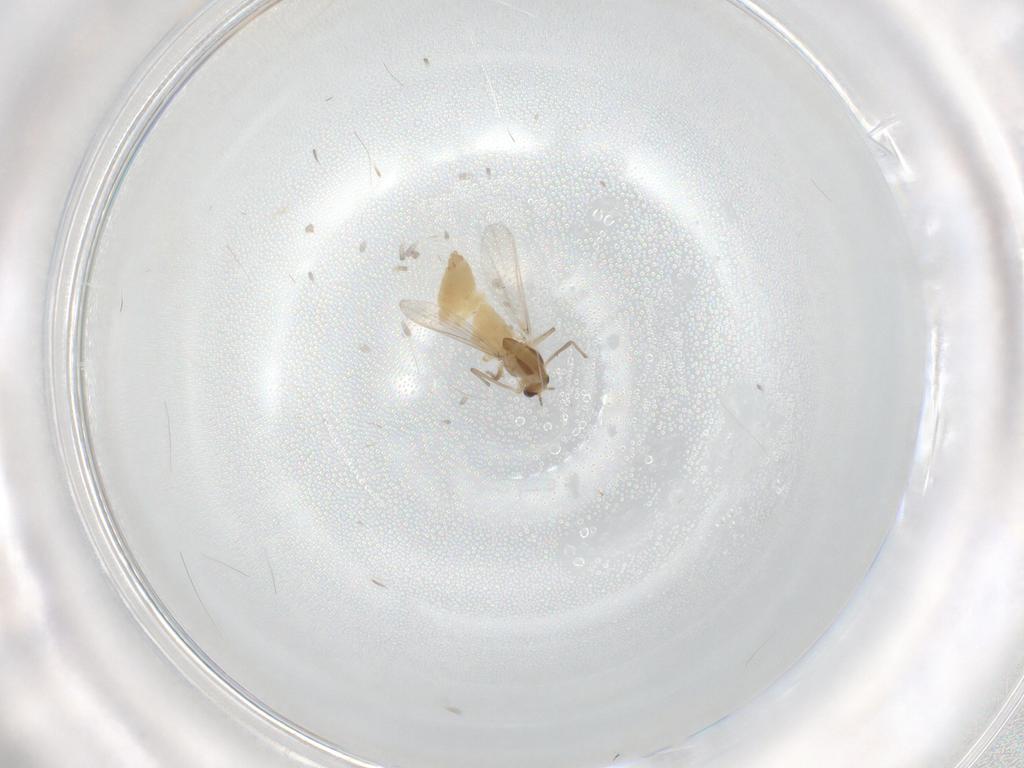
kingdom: Animalia
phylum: Arthropoda
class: Insecta
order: Diptera
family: Chironomidae
